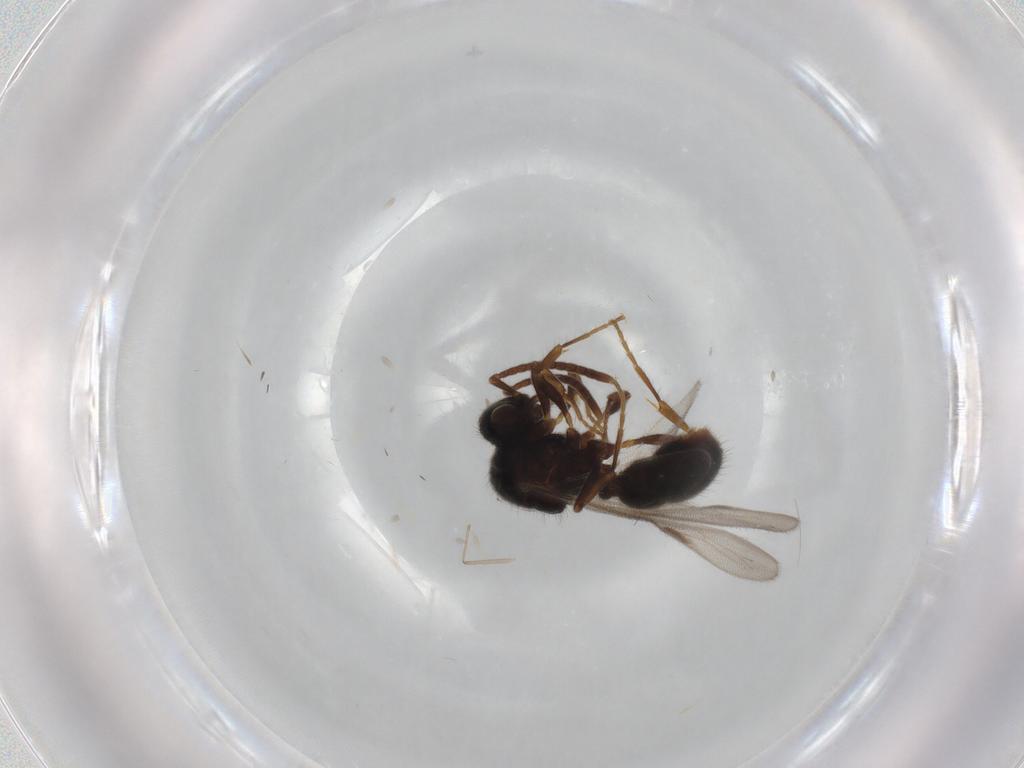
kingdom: Animalia
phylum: Arthropoda
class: Insecta
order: Hymenoptera
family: Formicidae
